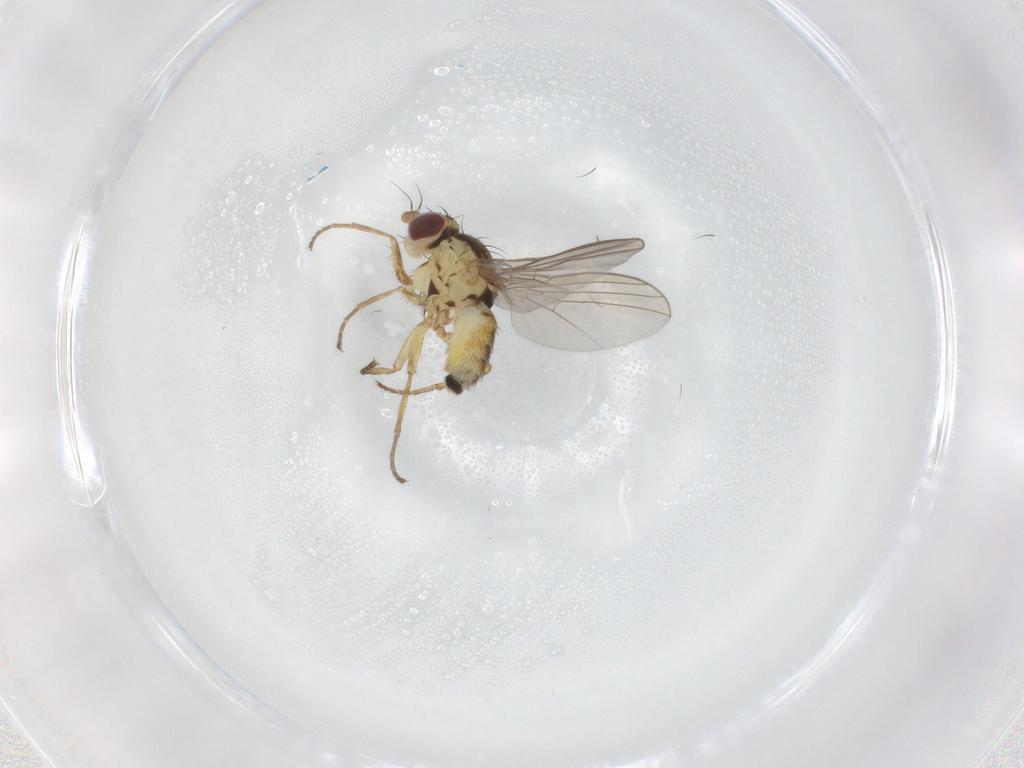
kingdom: Animalia
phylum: Arthropoda
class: Insecta
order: Diptera
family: Agromyzidae
